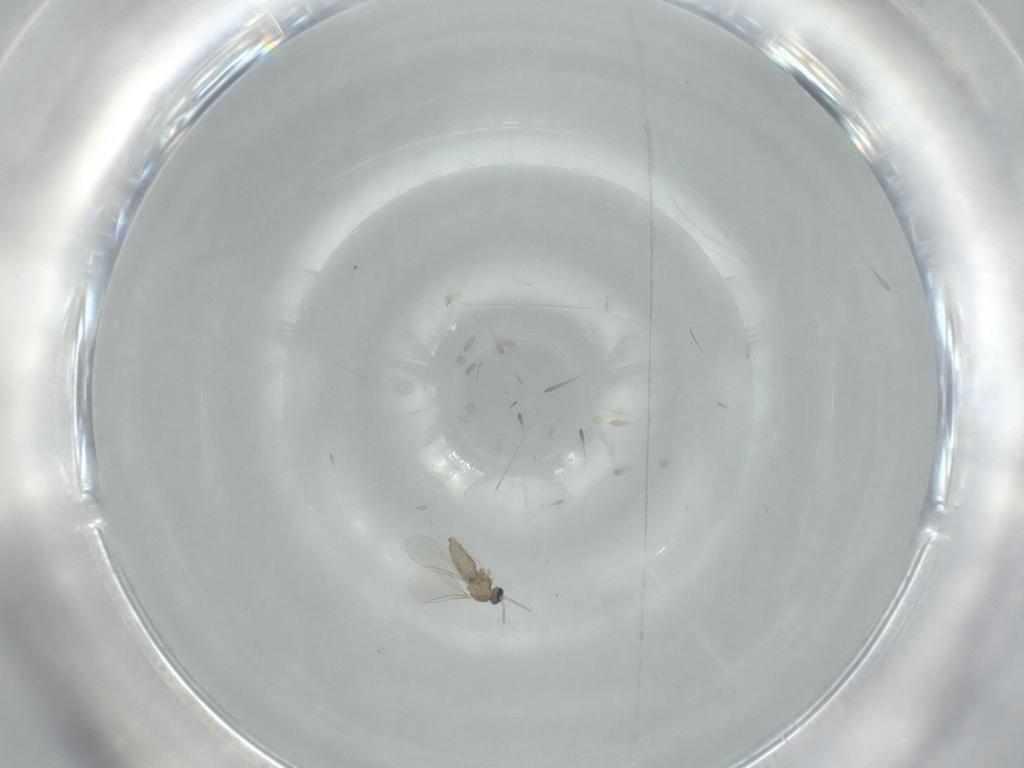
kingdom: Animalia
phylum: Arthropoda
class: Insecta
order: Diptera
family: Cecidomyiidae
